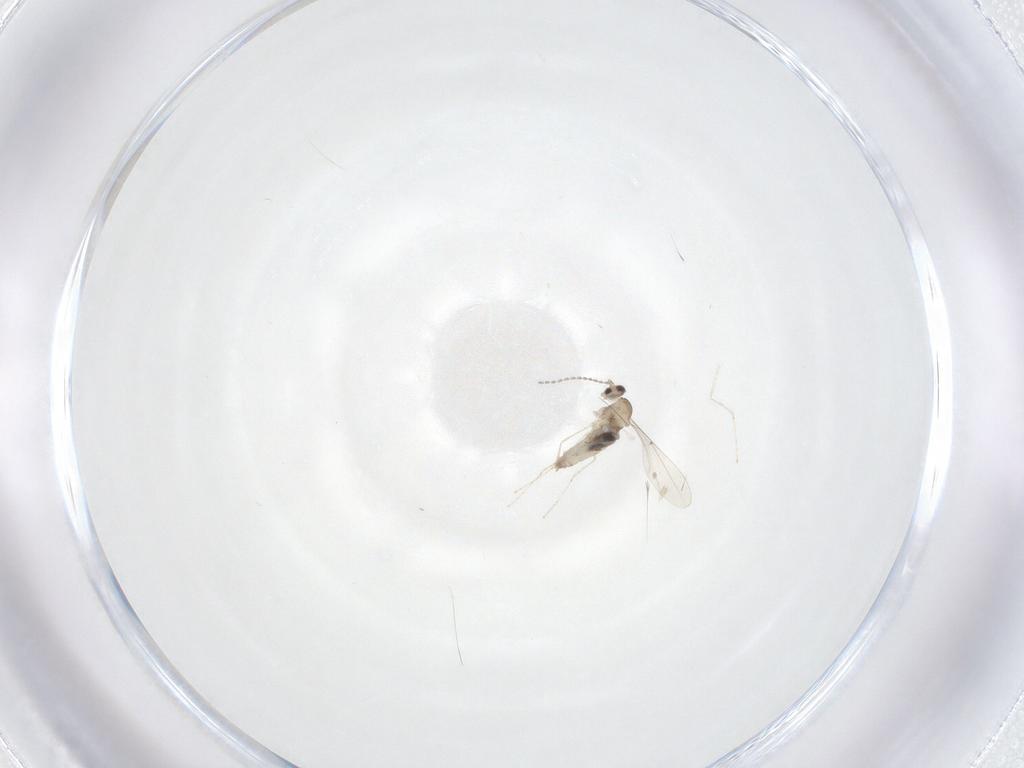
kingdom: Animalia
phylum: Arthropoda
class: Insecta
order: Diptera
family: Cecidomyiidae
